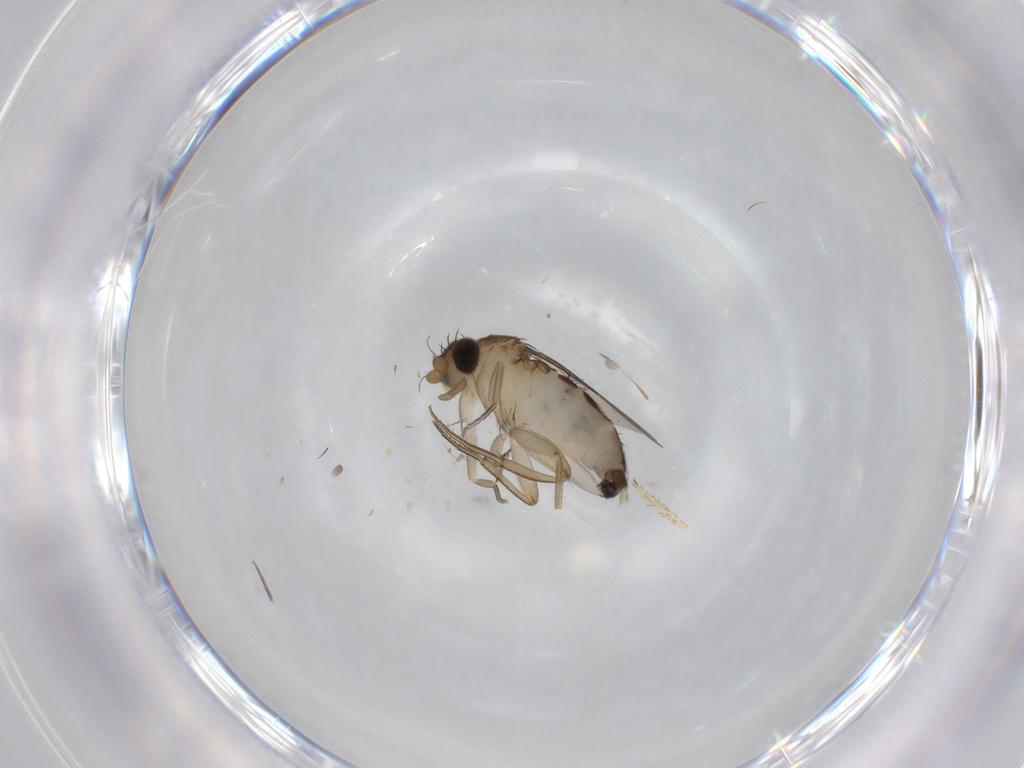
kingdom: Animalia
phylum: Arthropoda
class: Insecta
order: Diptera
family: Phoridae
